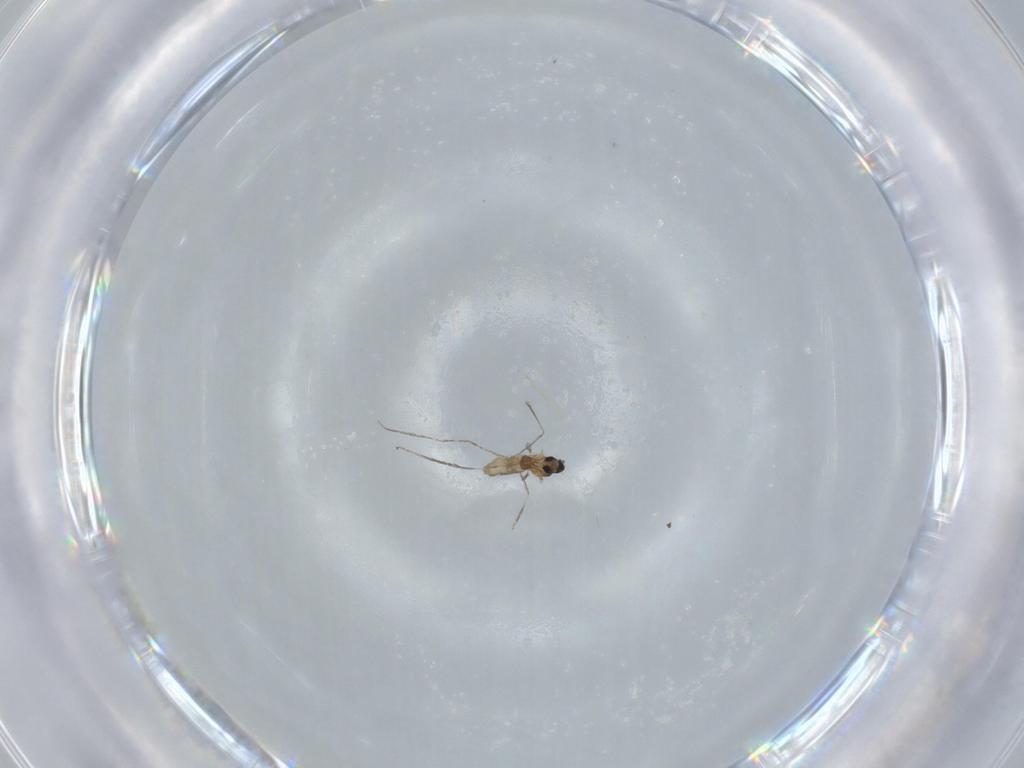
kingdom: Animalia
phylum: Arthropoda
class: Insecta
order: Diptera
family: Cecidomyiidae
